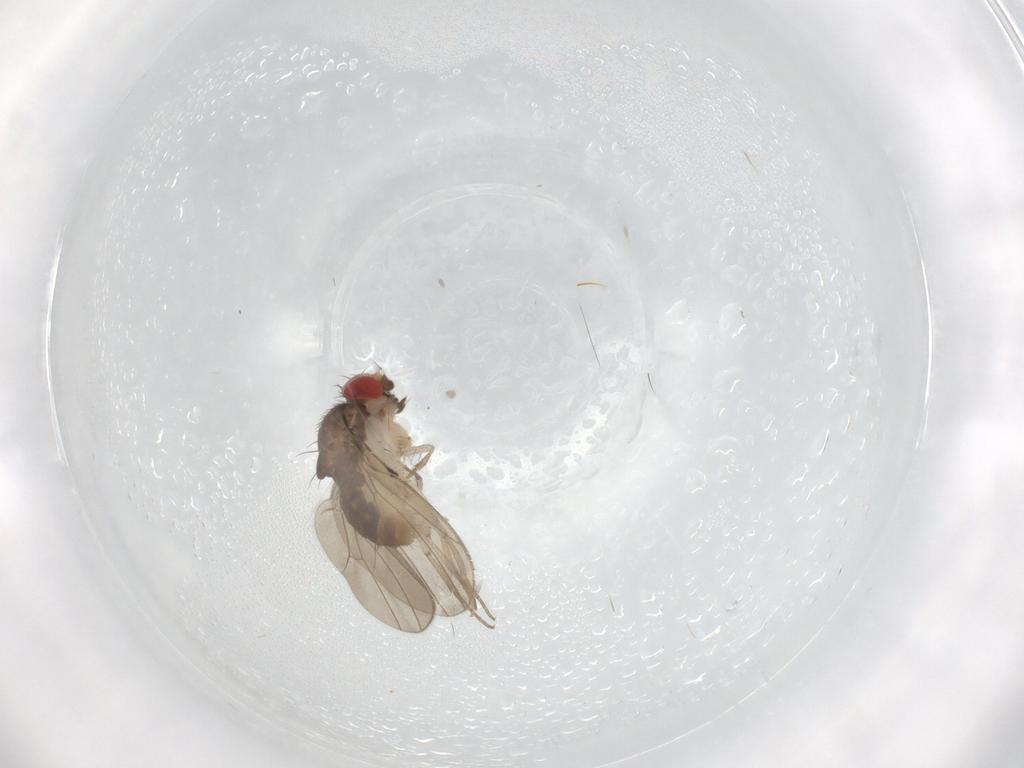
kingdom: Animalia
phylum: Arthropoda
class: Insecta
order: Diptera
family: Drosophilidae
